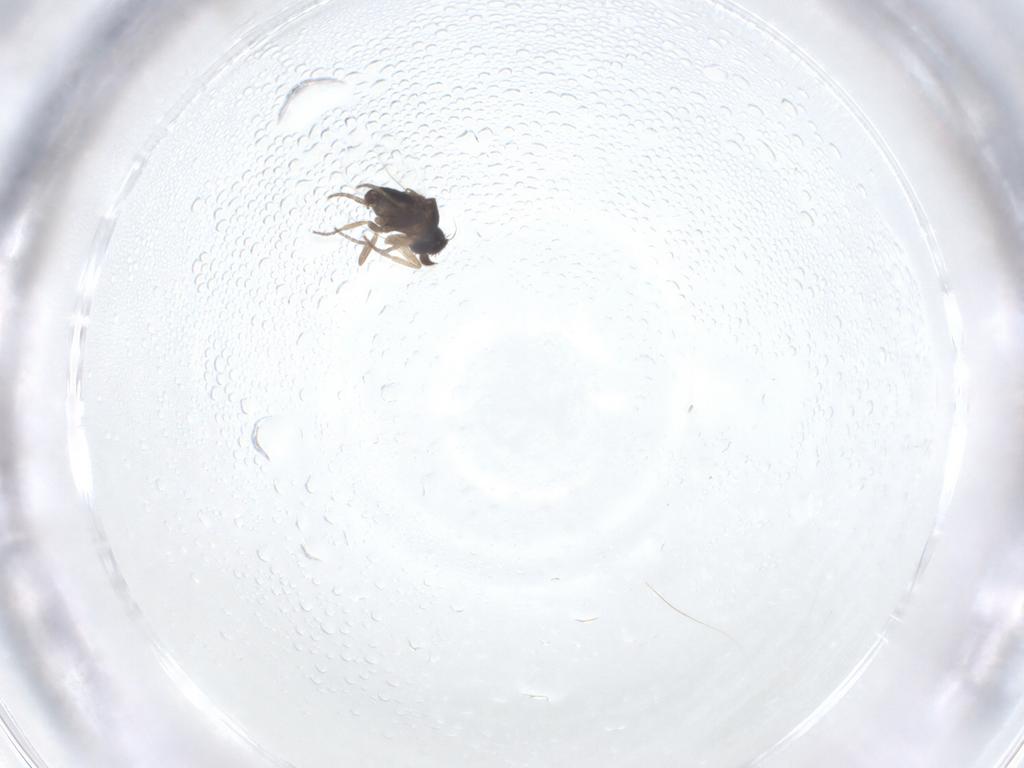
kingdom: Animalia
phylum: Arthropoda
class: Insecta
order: Diptera
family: Phoridae
